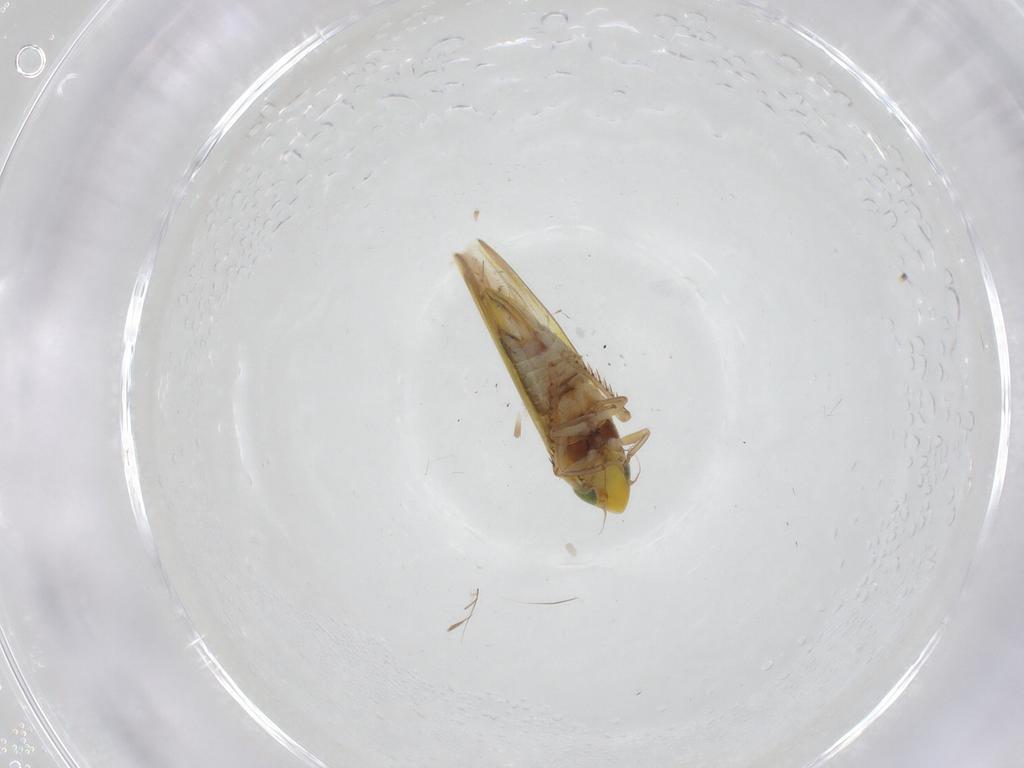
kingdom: Animalia
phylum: Arthropoda
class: Insecta
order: Hemiptera
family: Cicadellidae
